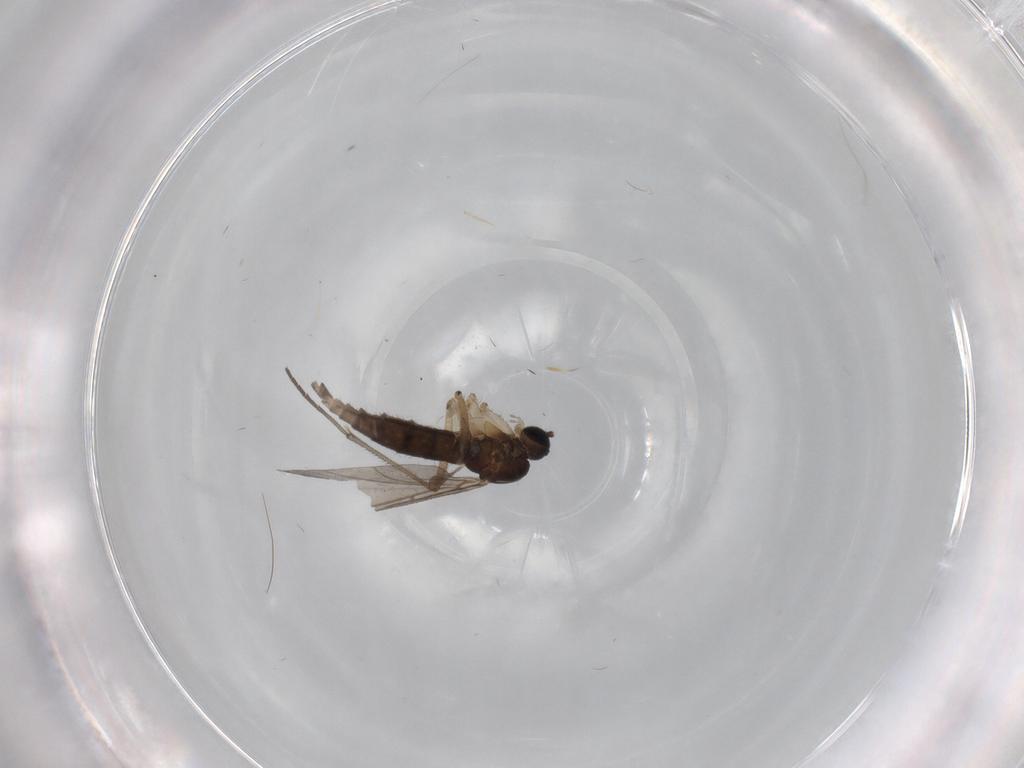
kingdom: Animalia
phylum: Arthropoda
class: Insecta
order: Diptera
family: Sciaridae
